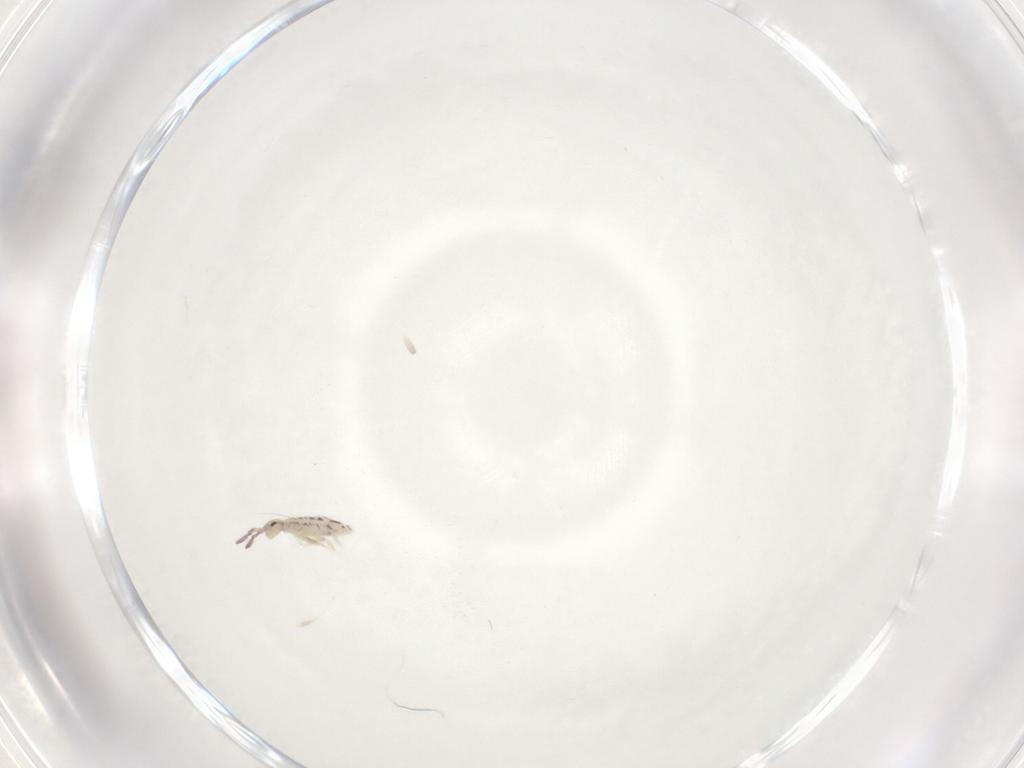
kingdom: Animalia
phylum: Arthropoda
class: Collembola
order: Entomobryomorpha
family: Entomobryidae
